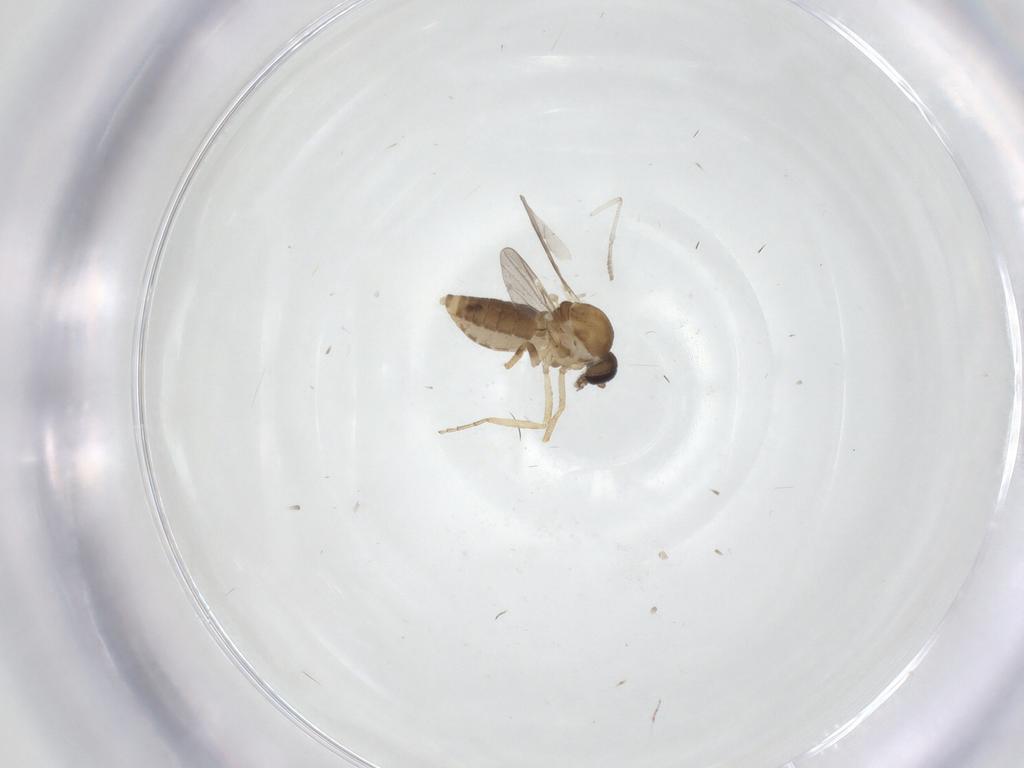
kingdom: Animalia
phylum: Arthropoda
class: Insecta
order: Diptera
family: Ceratopogonidae
